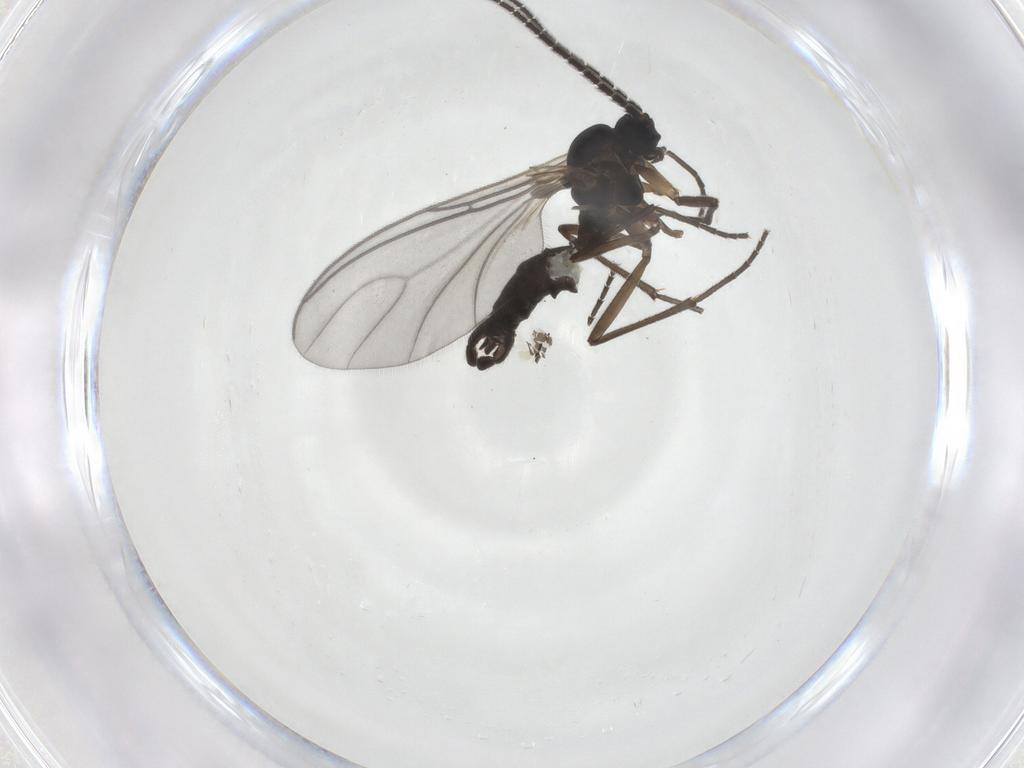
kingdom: Animalia
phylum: Arthropoda
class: Insecta
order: Diptera
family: Sciaridae
